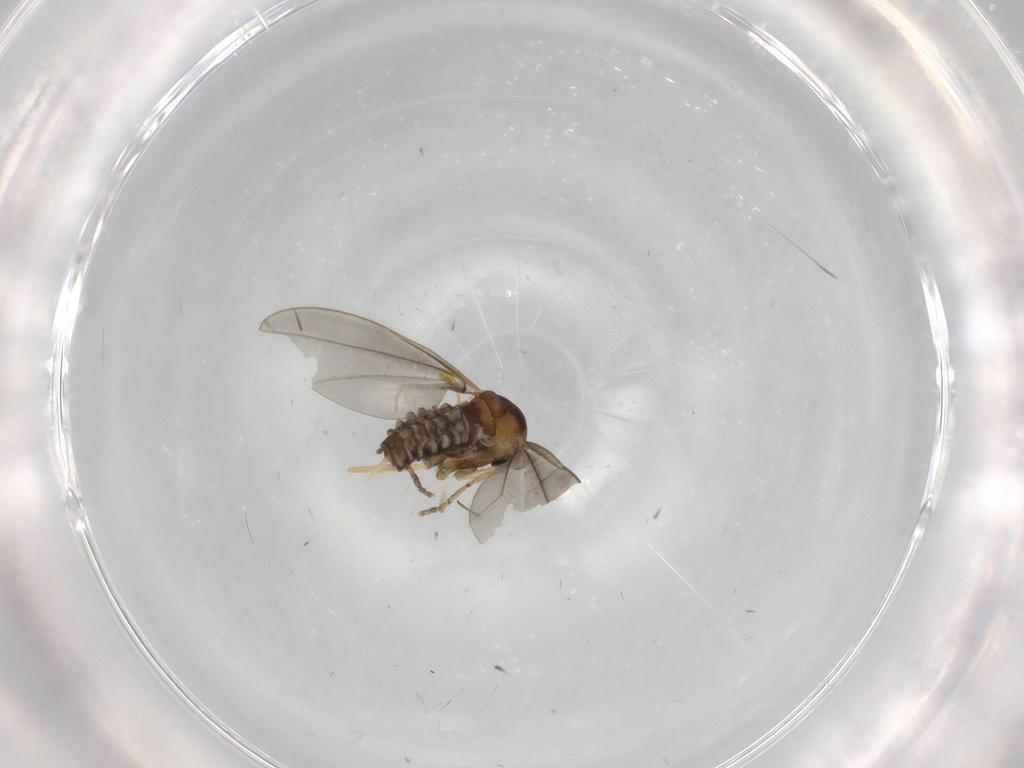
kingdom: Animalia
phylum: Arthropoda
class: Insecta
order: Diptera
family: Cecidomyiidae
